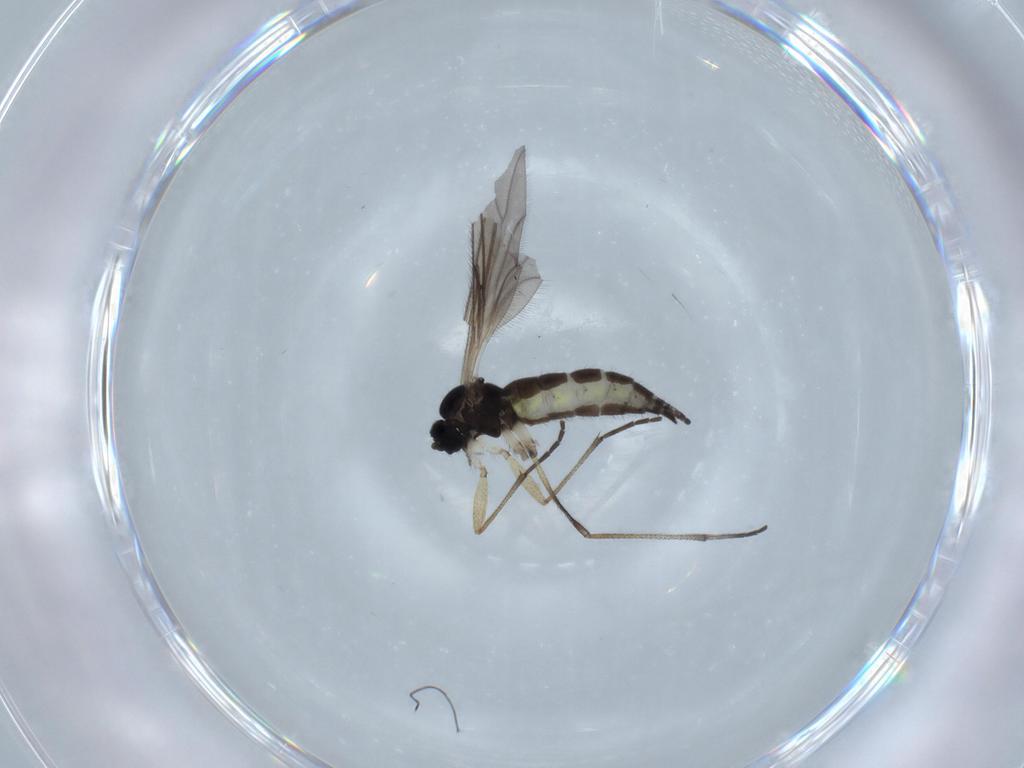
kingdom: Animalia
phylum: Arthropoda
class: Insecta
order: Diptera
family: Sciaridae
